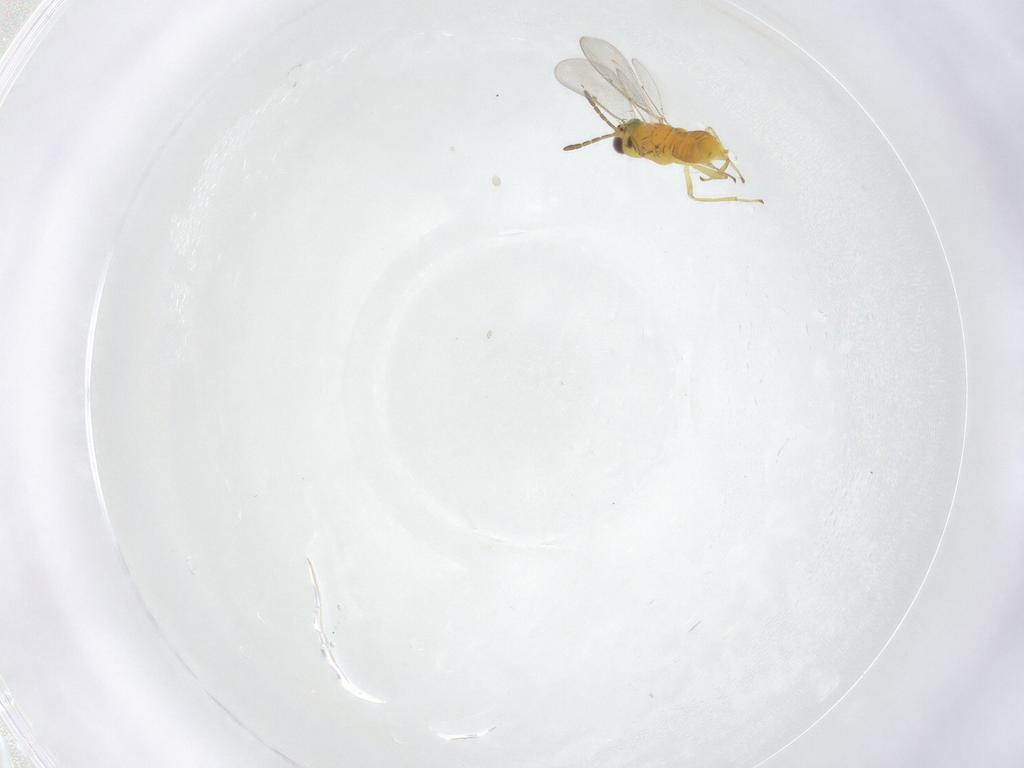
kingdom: Animalia
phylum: Arthropoda
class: Insecta
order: Hymenoptera
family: Aphelinidae
